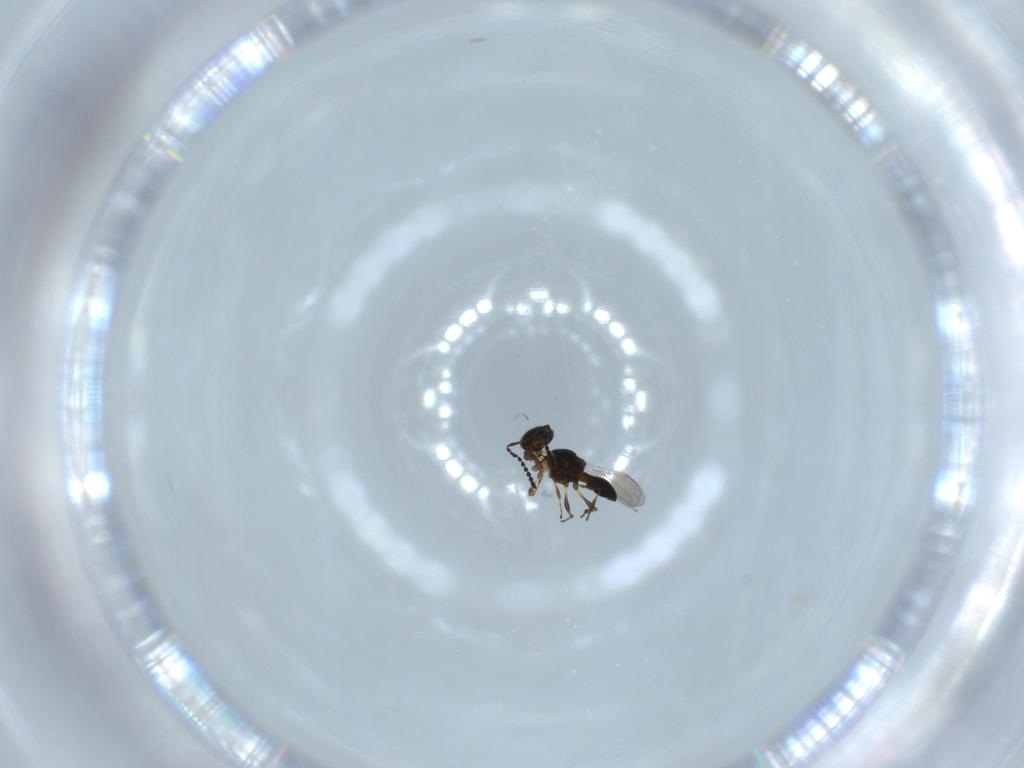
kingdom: Animalia
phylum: Arthropoda
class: Insecta
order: Hymenoptera
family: Platygastridae
